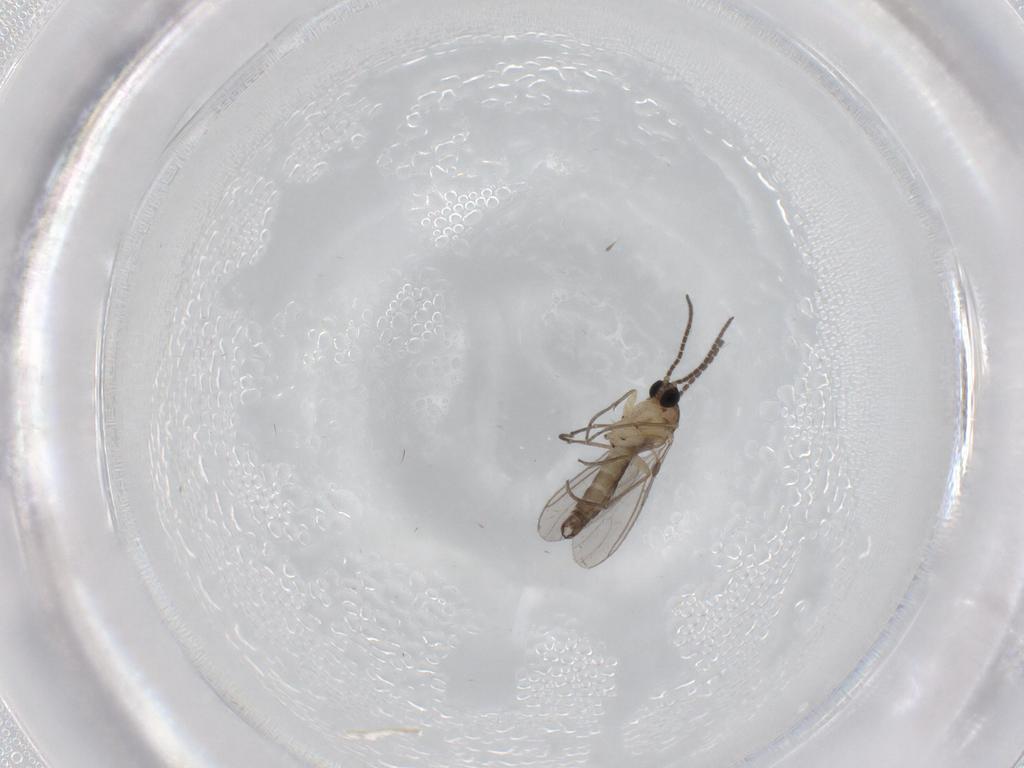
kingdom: Animalia
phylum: Arthropoda
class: Insecta
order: Diptera
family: Sciaridae
